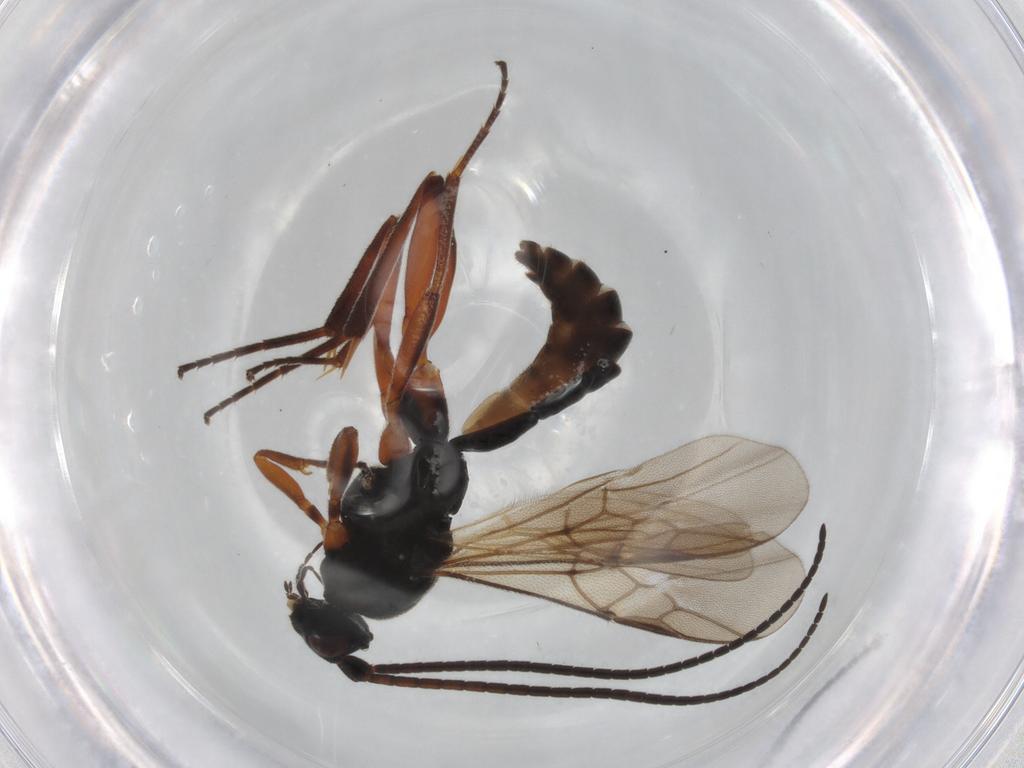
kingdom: Animalia
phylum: Arthropoda
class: Insecta
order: Hymenoptera
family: Braconidae
